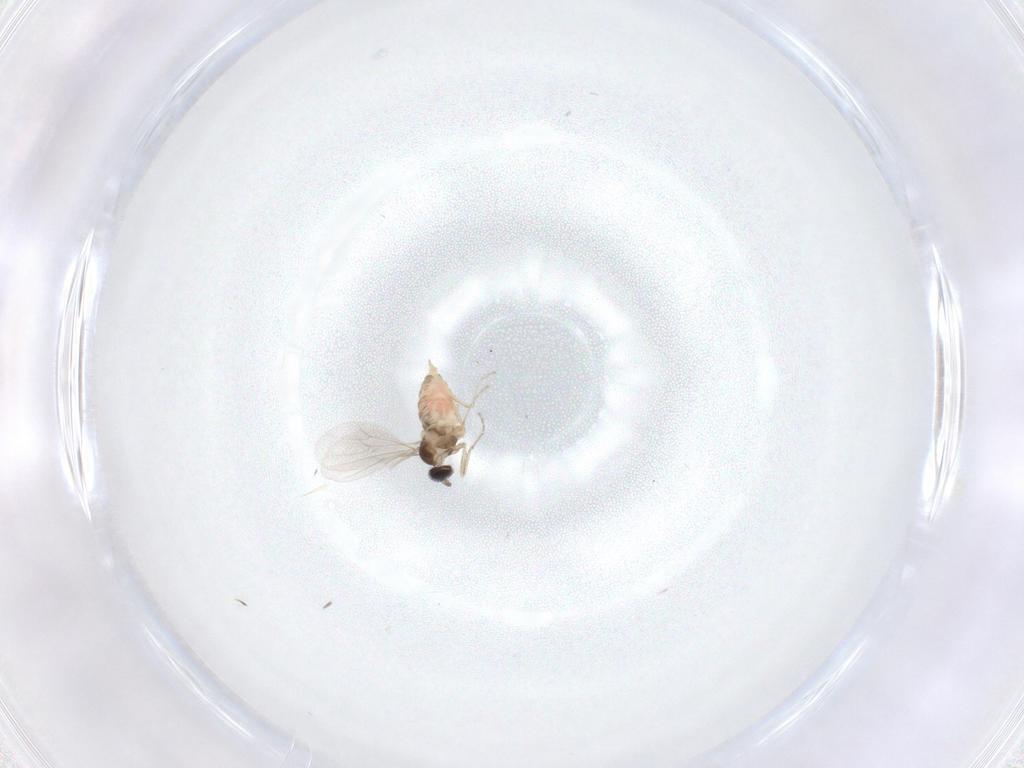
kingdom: Animalia
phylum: Arthropoda
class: Insecta
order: Diptera
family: Cecidomyiidae
